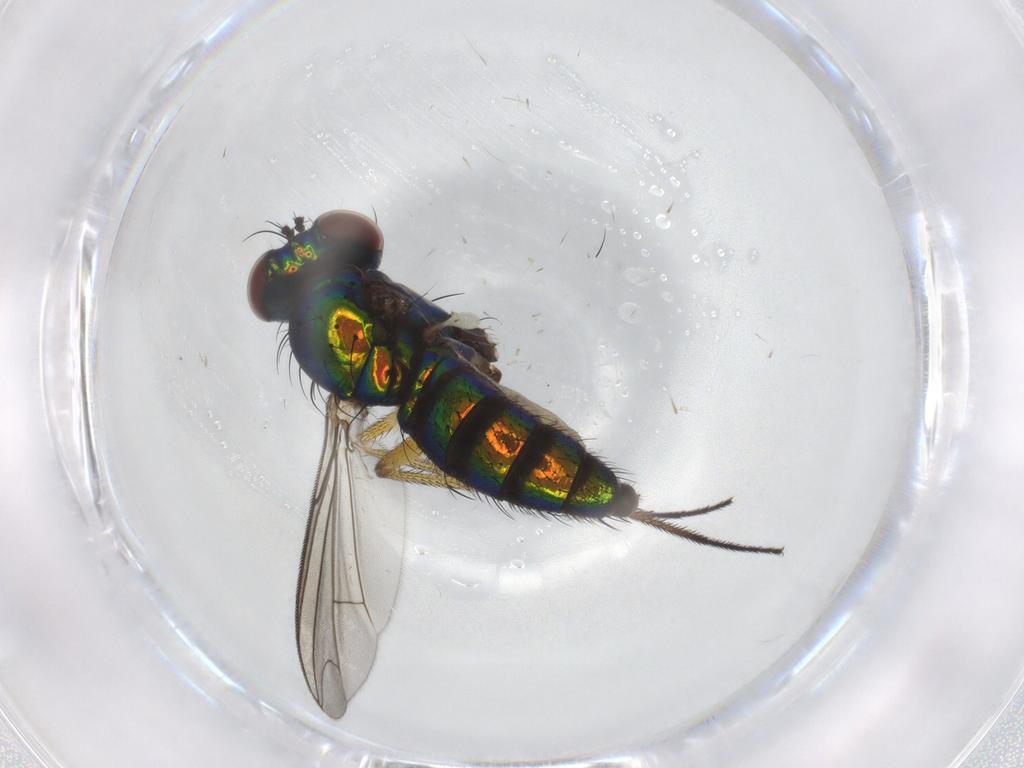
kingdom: Animalia
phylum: Arthropoda
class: Insecta
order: Diptera
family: Dolichopodidae
